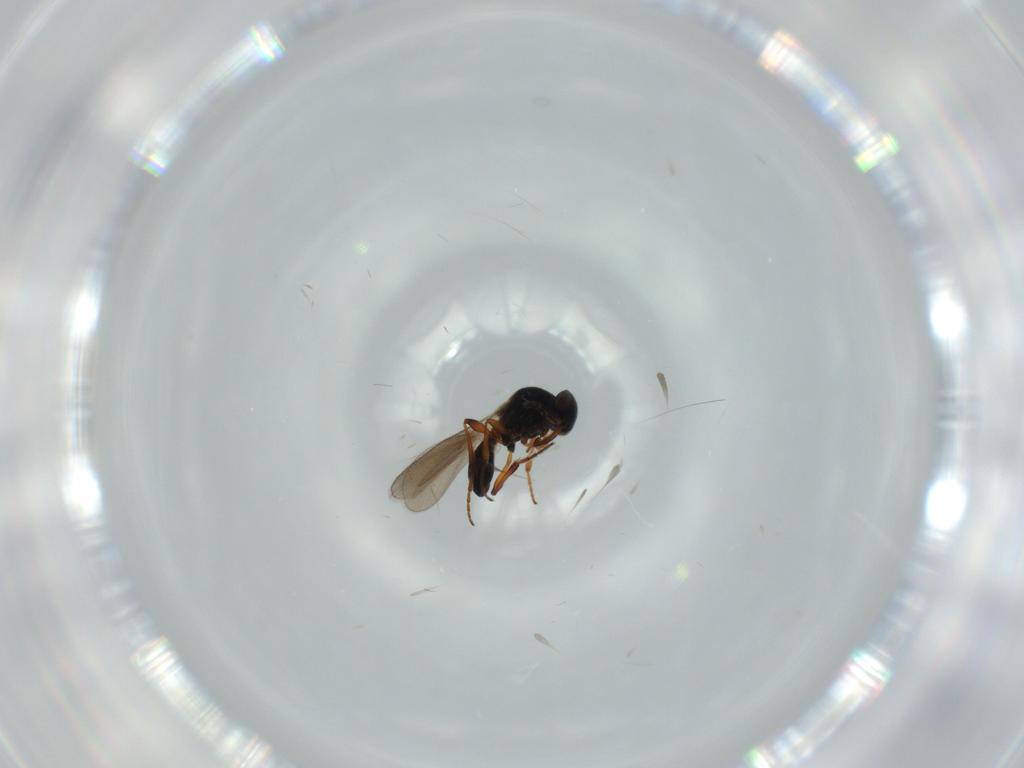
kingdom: Animalia
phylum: Arthropoda
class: Insecta
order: Hymenoptera
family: Platygastridae
